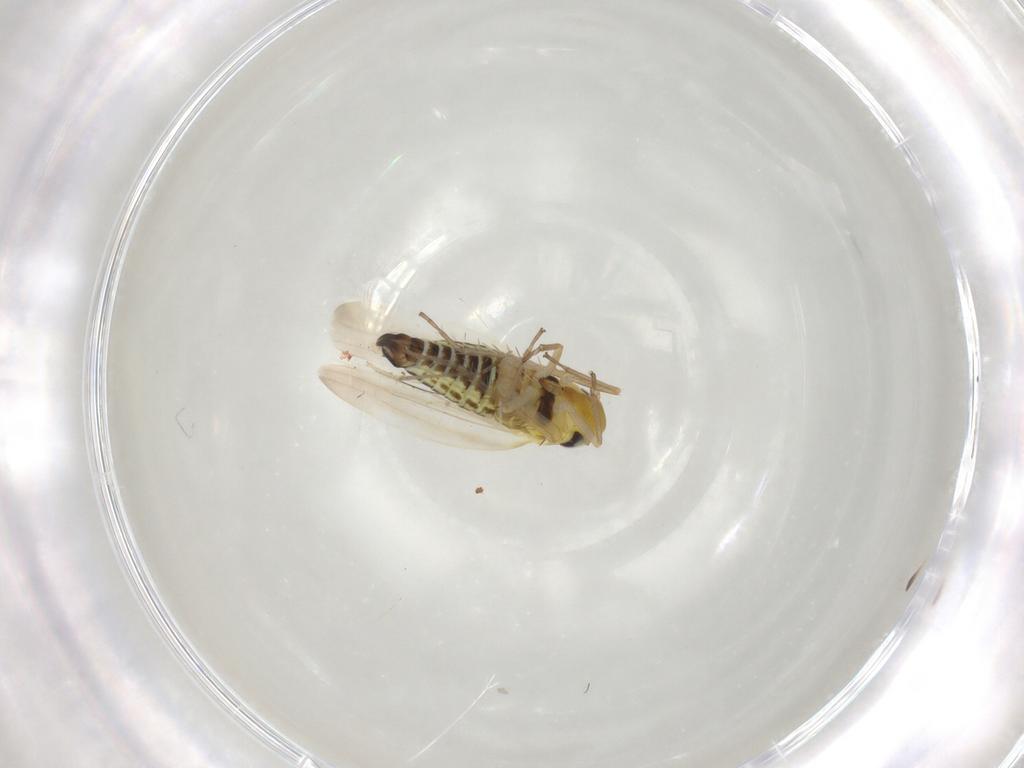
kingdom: Animalia
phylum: Arthropoda
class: Insecta
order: Hemiptera
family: Cicadellidae
